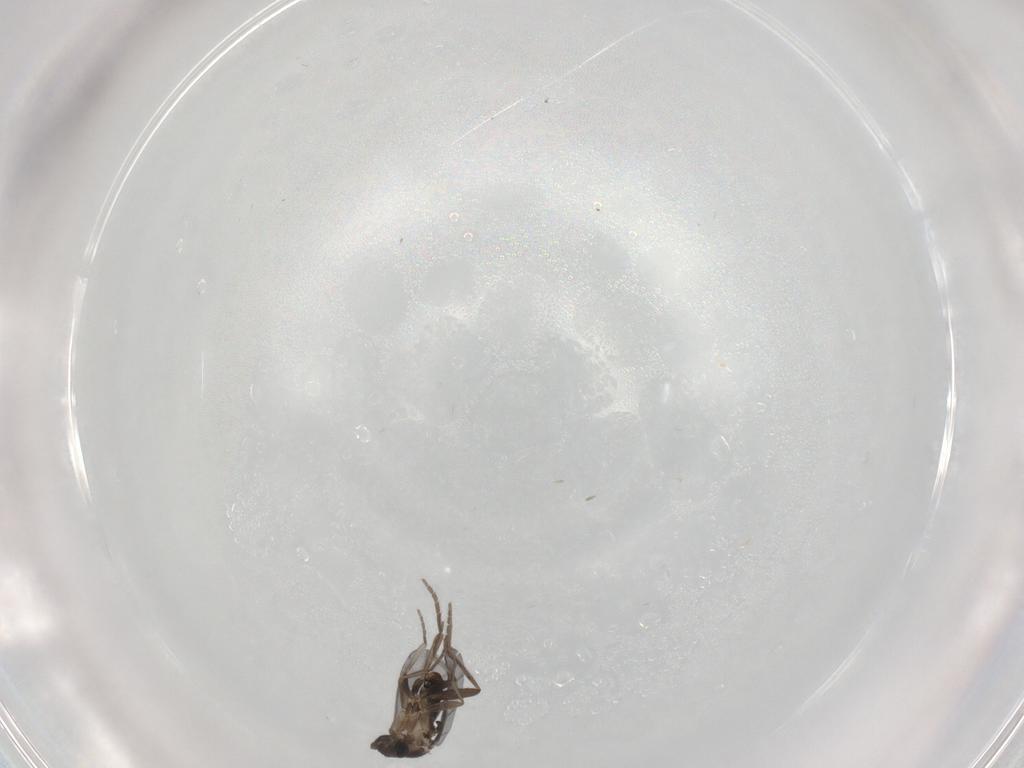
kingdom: Animalia
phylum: Arthropoda
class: Insecta
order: Diptera
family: Phoridae
